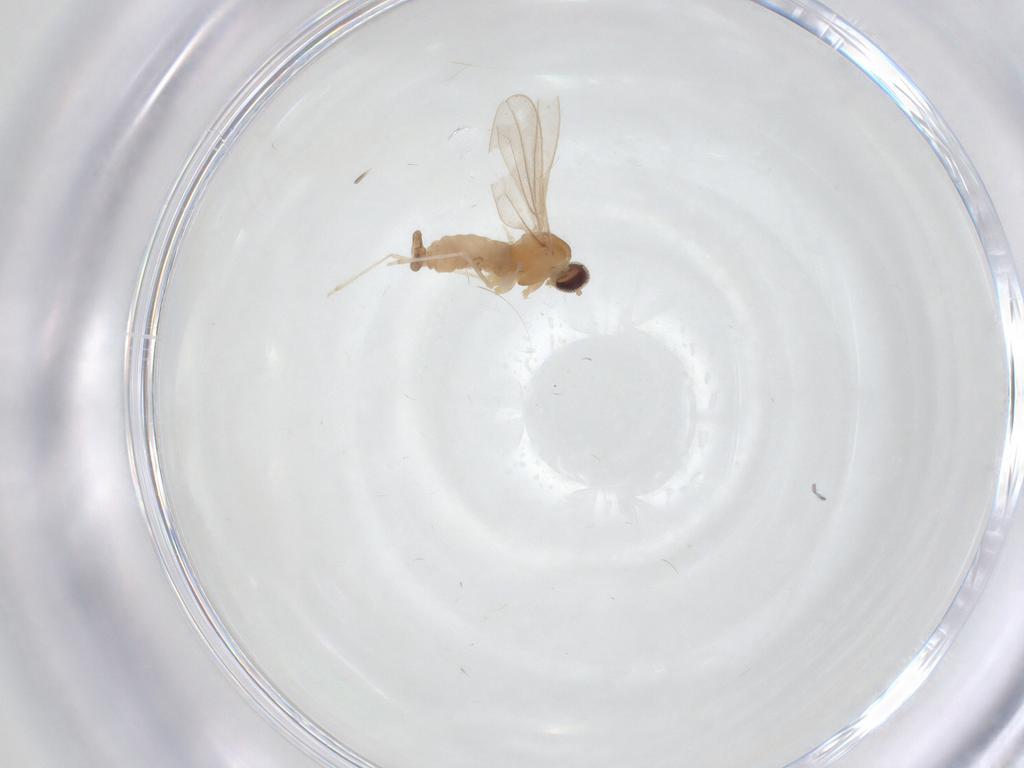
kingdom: Animalia
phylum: Arthropoda
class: Insecta
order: Diptera
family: Cecidomyiidae
